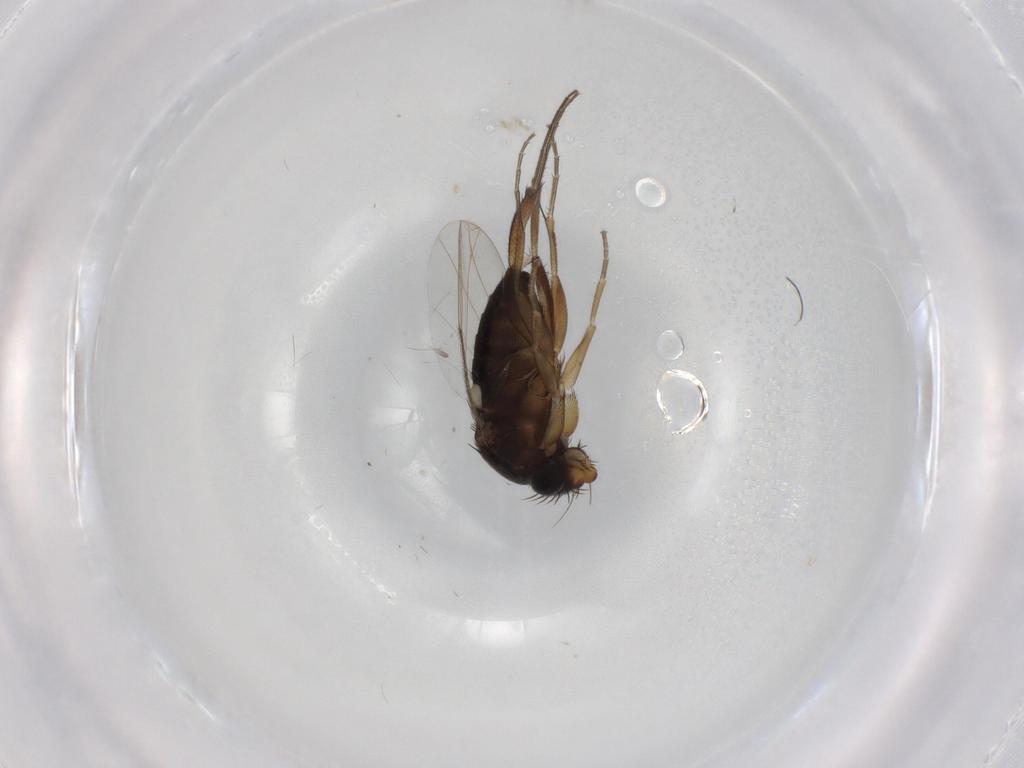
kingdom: Animalia
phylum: Arthropoda
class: Insecta
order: Diptera
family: Phoridae
